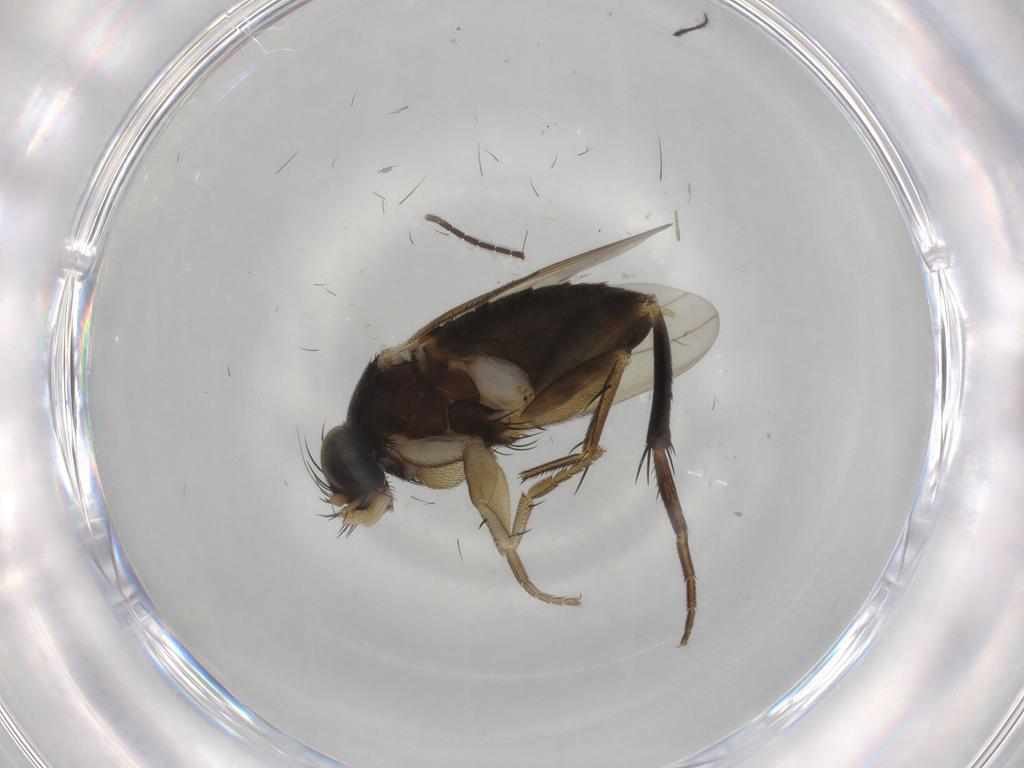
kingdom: Animalia
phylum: Arthropoda
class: Insecta
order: Diptera
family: Phoridae
